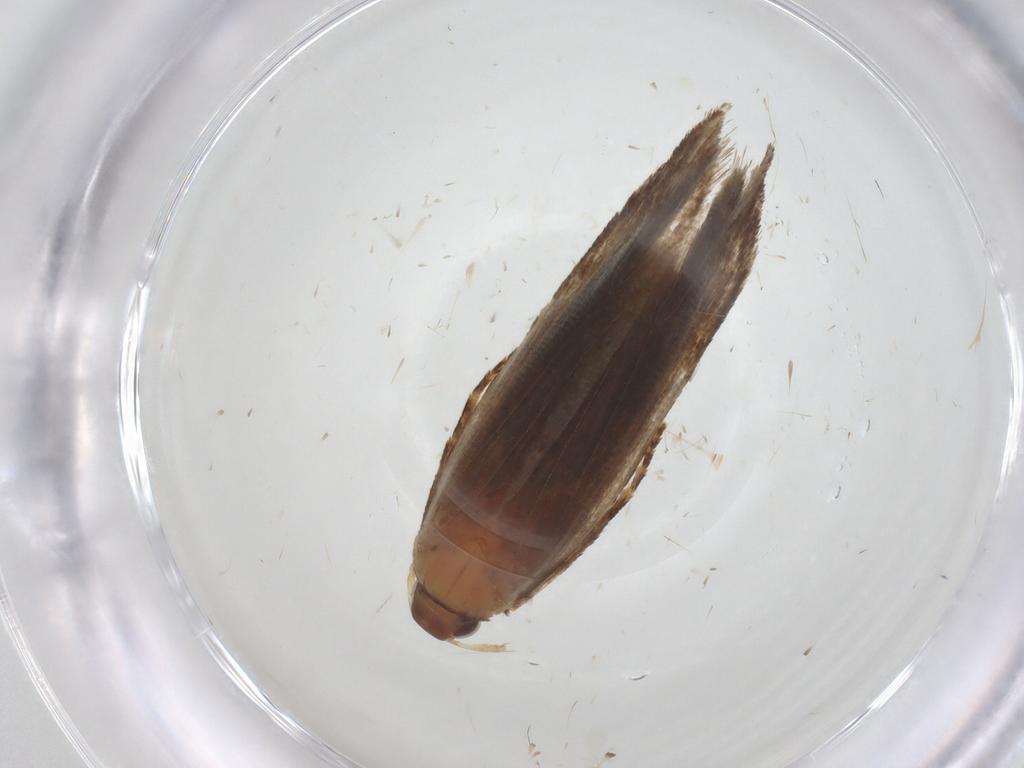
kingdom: Animalia
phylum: Arthropoda
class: Insecta
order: Lepidoptera
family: Gelechiidae
